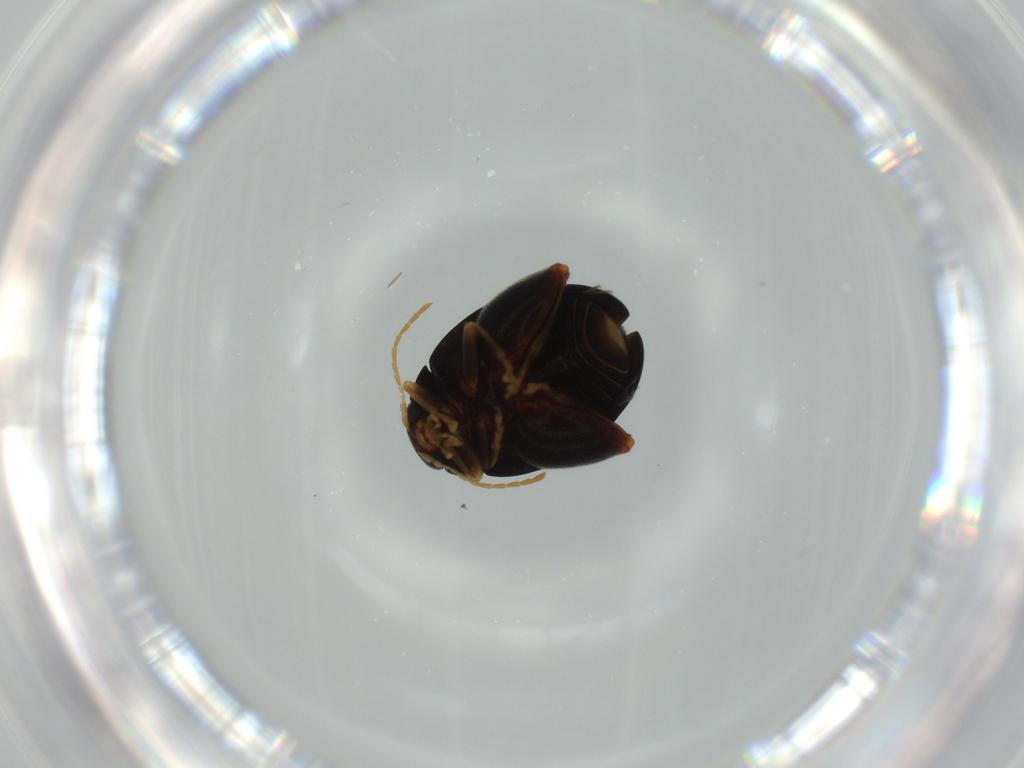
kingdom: Animalia
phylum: Arthropoda
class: Insecta
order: Coleoptera
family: Chrysomelidae
